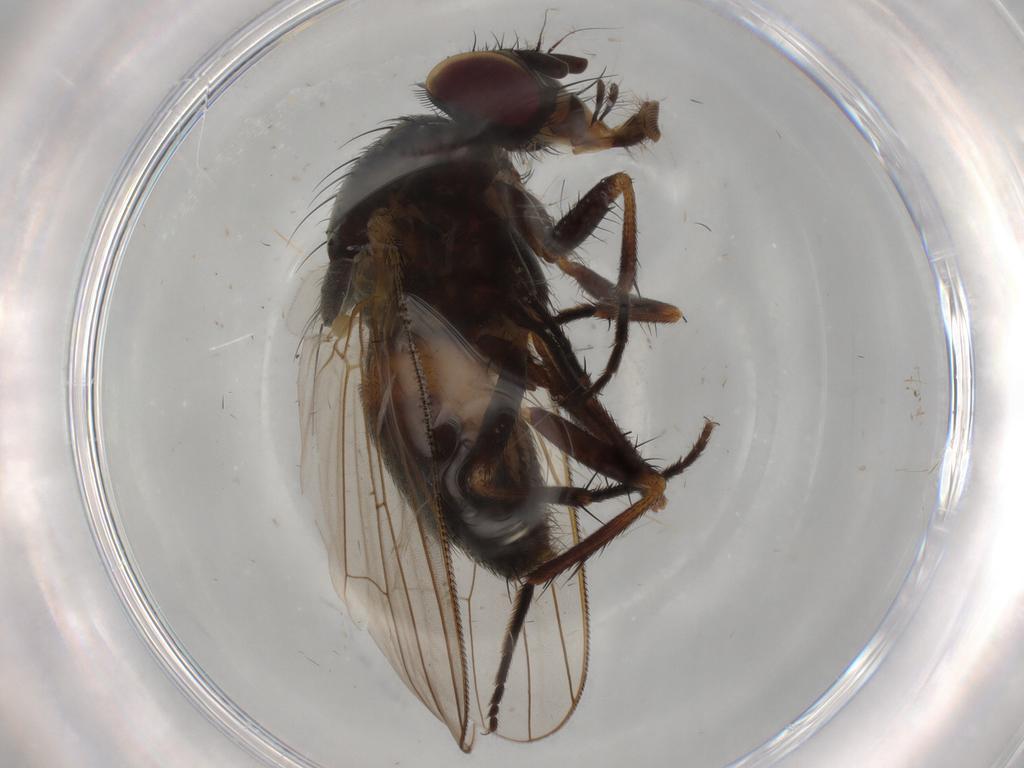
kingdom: Animalia
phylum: Arthropoda
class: Insecta
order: Diptera
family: Fannia
